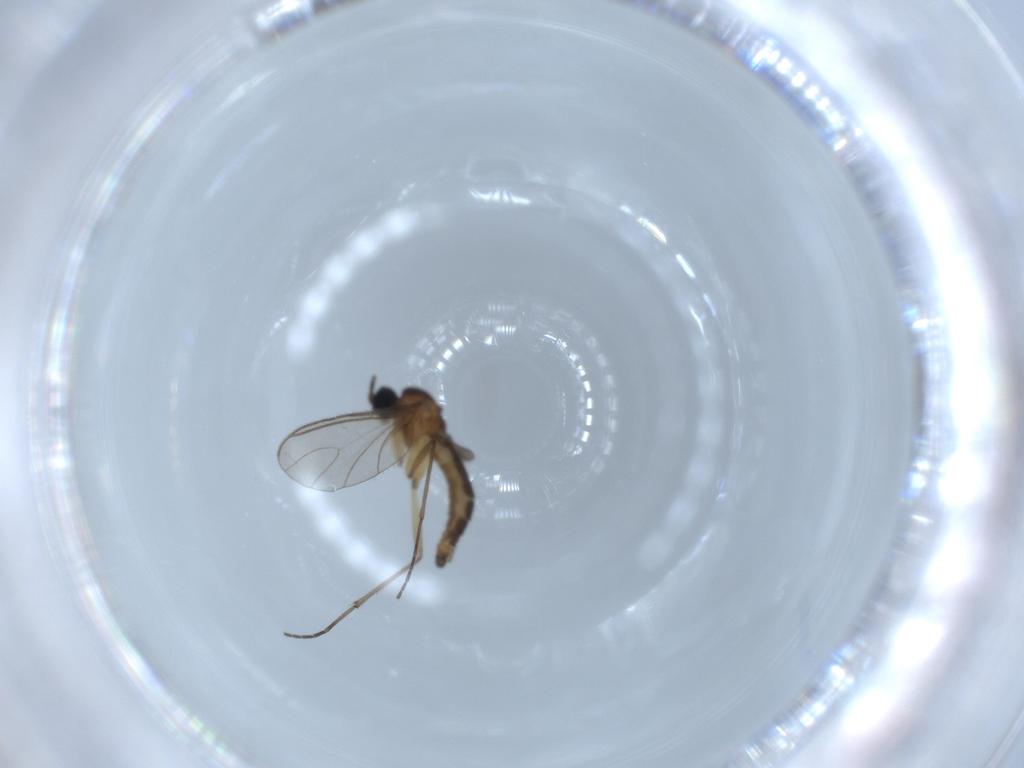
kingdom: Animalia
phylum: Arthropoda
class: Insecta
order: Diptera
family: Sciaridae
